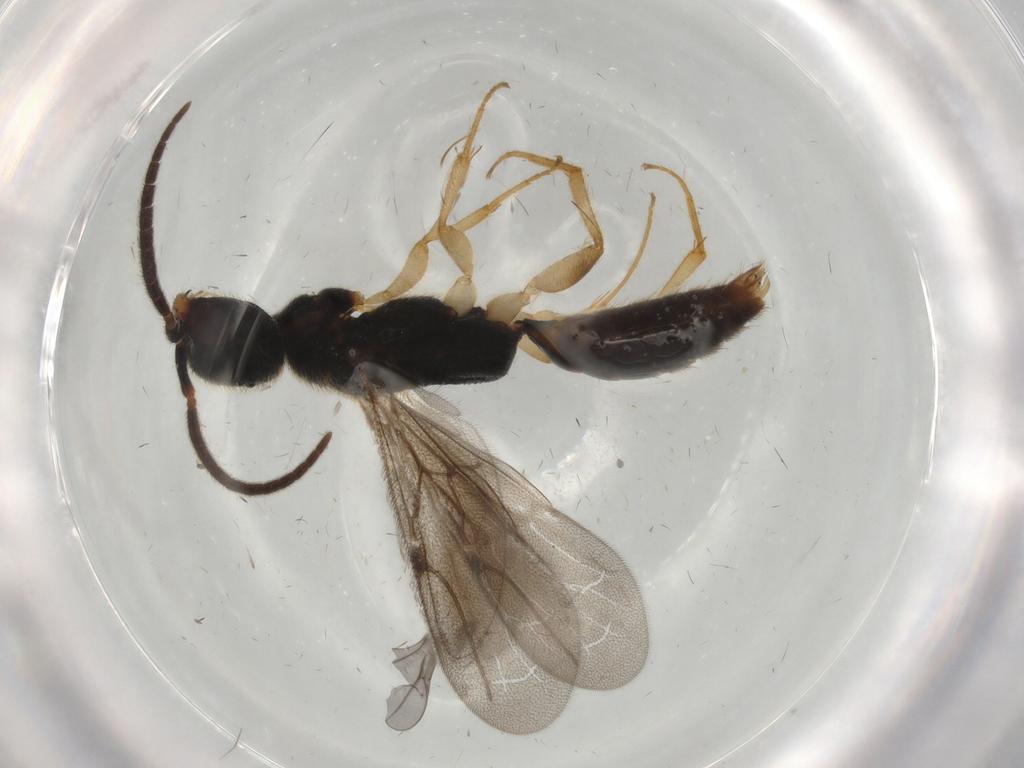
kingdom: Animalia
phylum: Arthropoda
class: Insecta
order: Hymenoptera
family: Bethylidae
